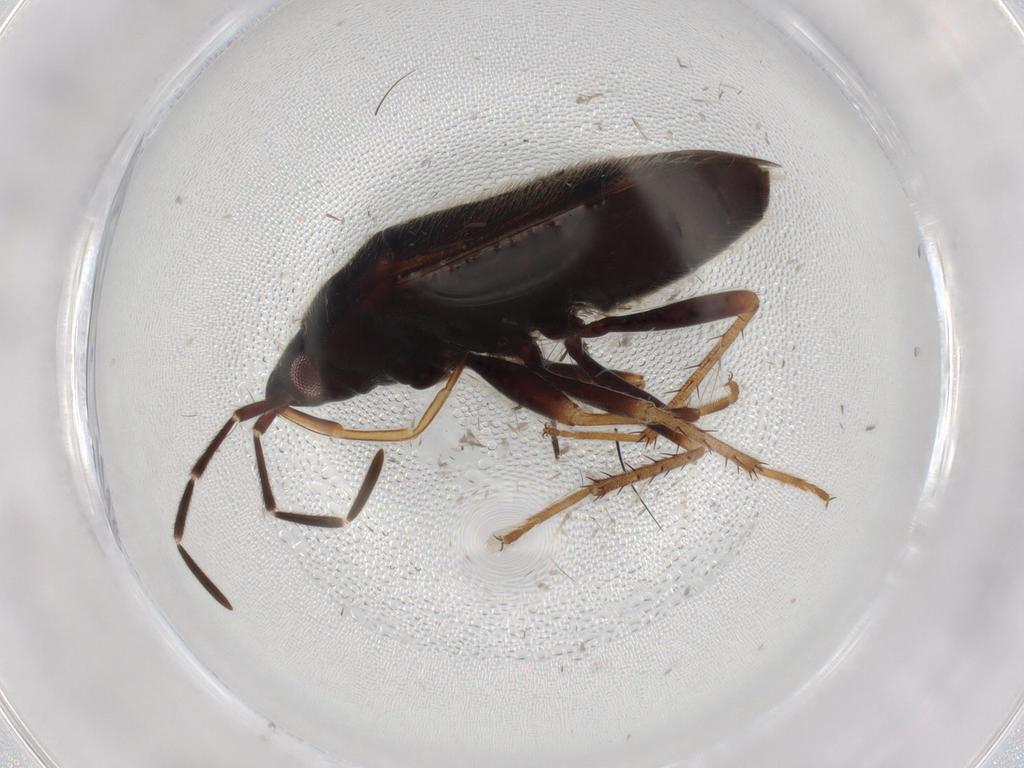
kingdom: Animalia
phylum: Arthropoda
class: Insecta
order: Hemiptera
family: Rhyparochromidae
